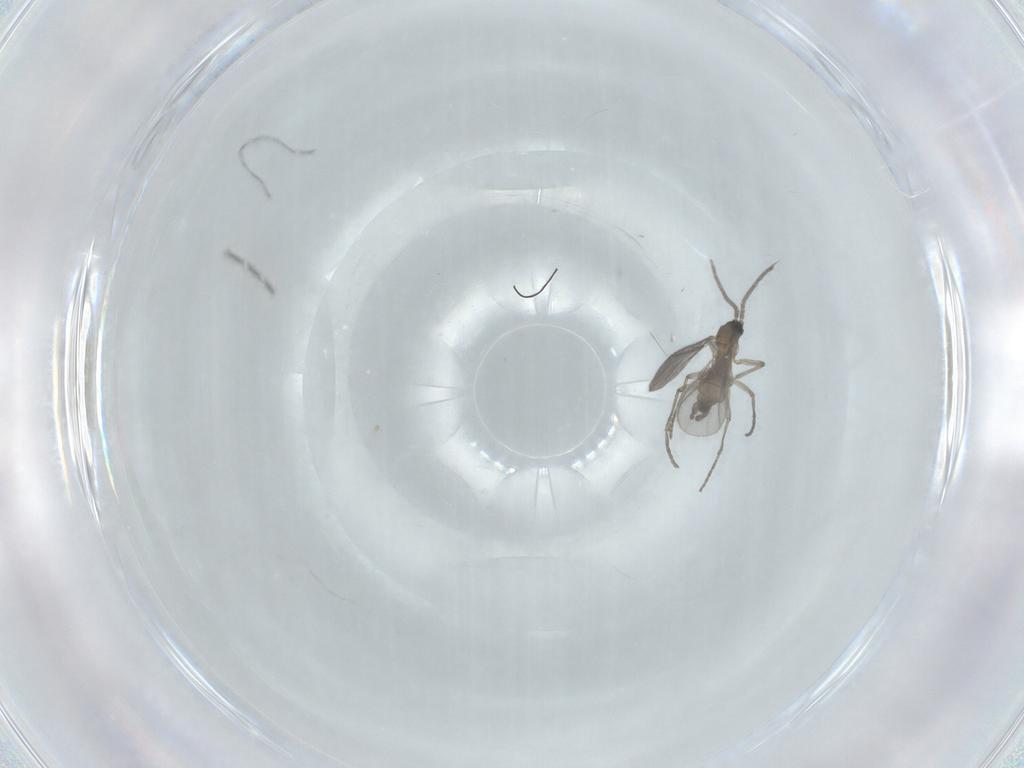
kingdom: Animalia
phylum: Arthropoda
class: Insecta
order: Diptera
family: Sciaridae
